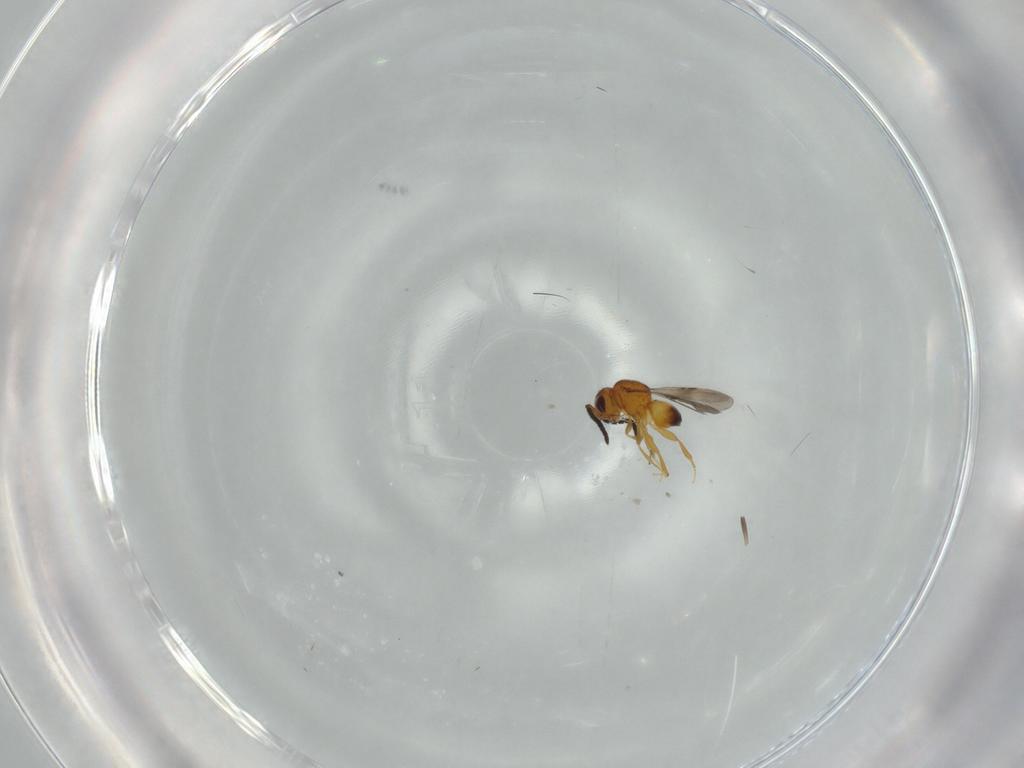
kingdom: Animalia
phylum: Arthropoda
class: Insecta
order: Hymenoptera
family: Scelionidae
